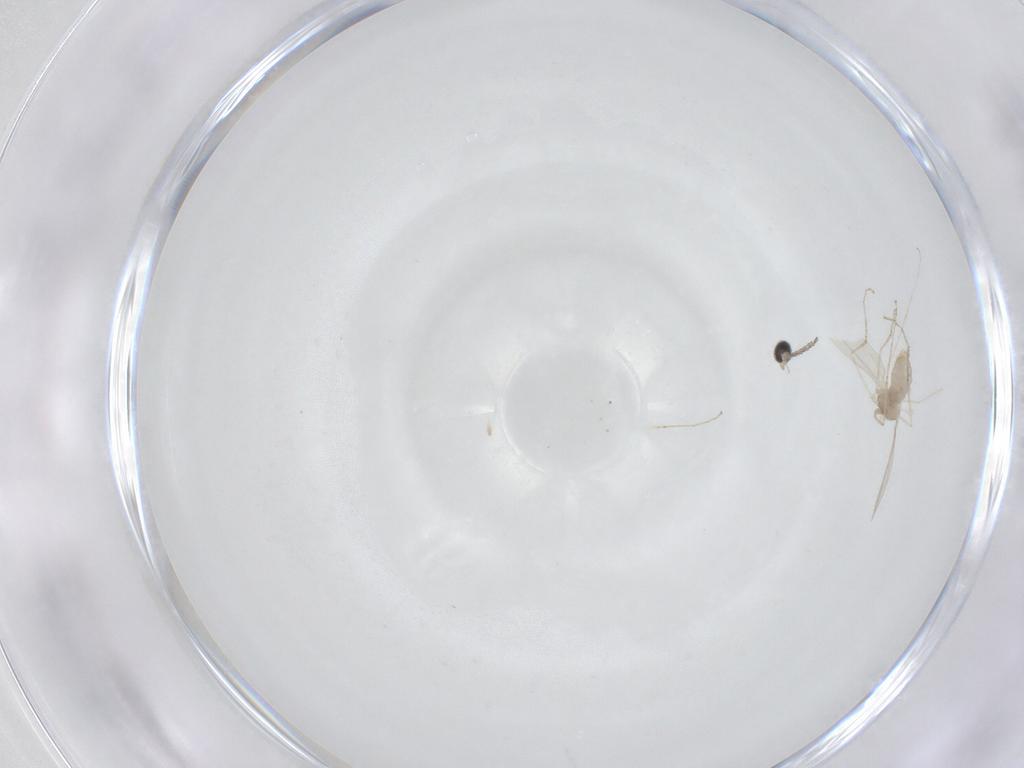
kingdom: Animalia
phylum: Arthropoda
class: Insecta
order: Diptera
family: Cecidomyiidae
